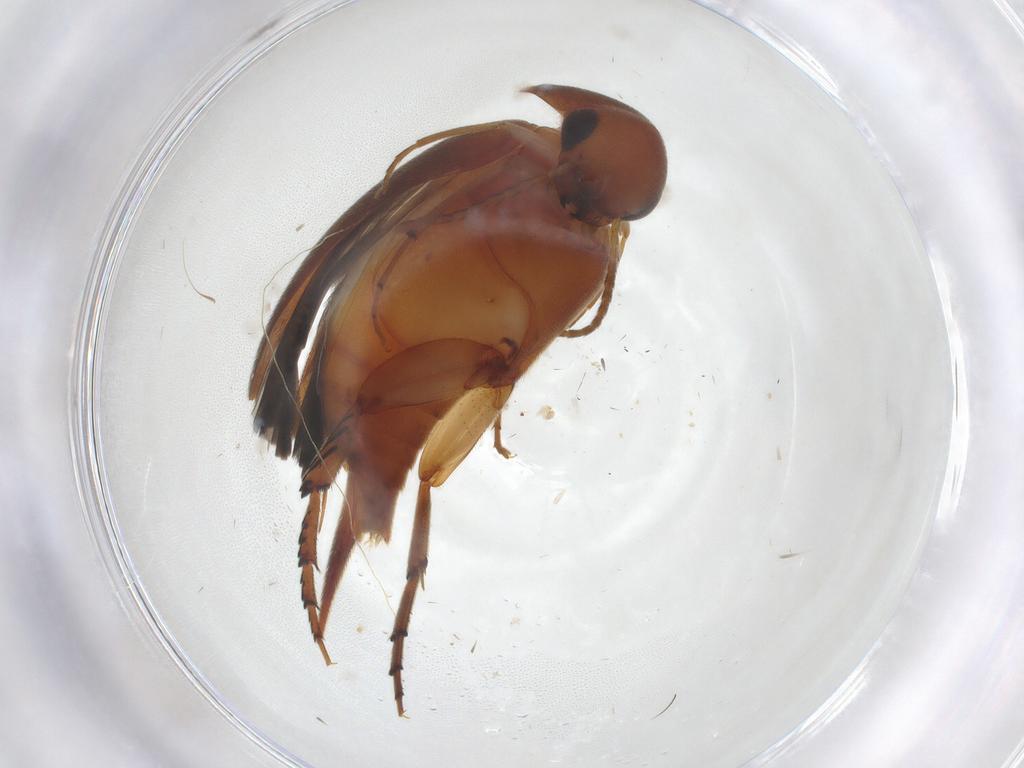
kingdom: Animalia
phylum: Arthropoda
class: Insecta
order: Coleoptera
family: Mordellidae
